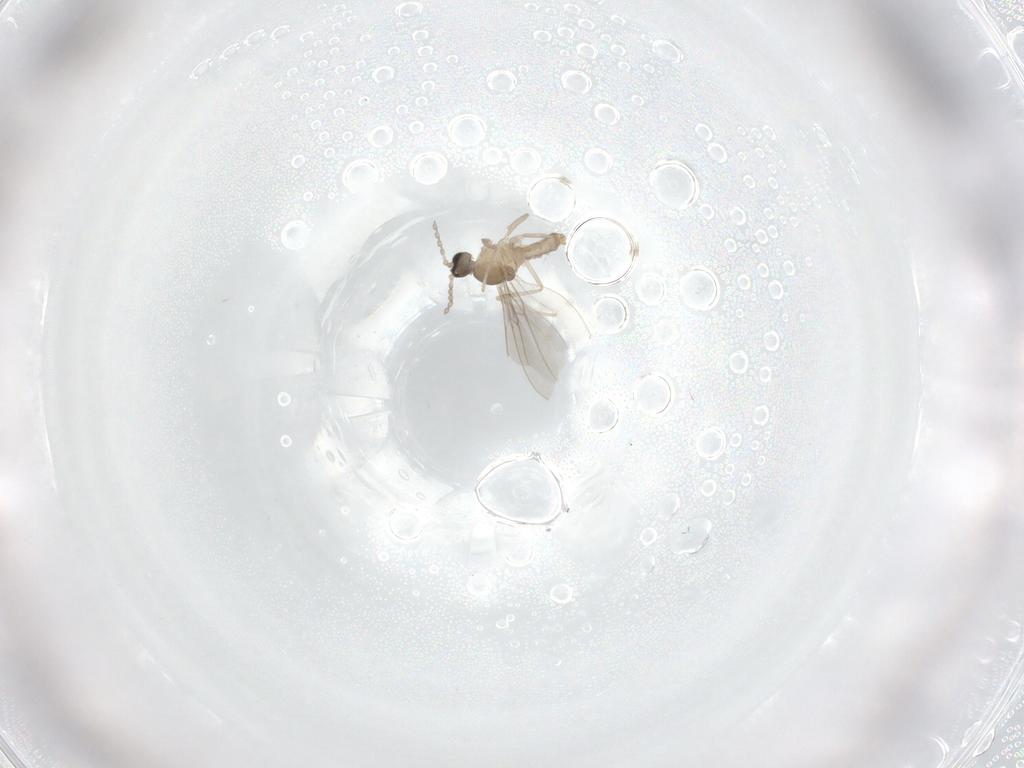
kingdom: Animalia
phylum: Arthropoda
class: Insecta
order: Diptera
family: Cecidomyiidae
